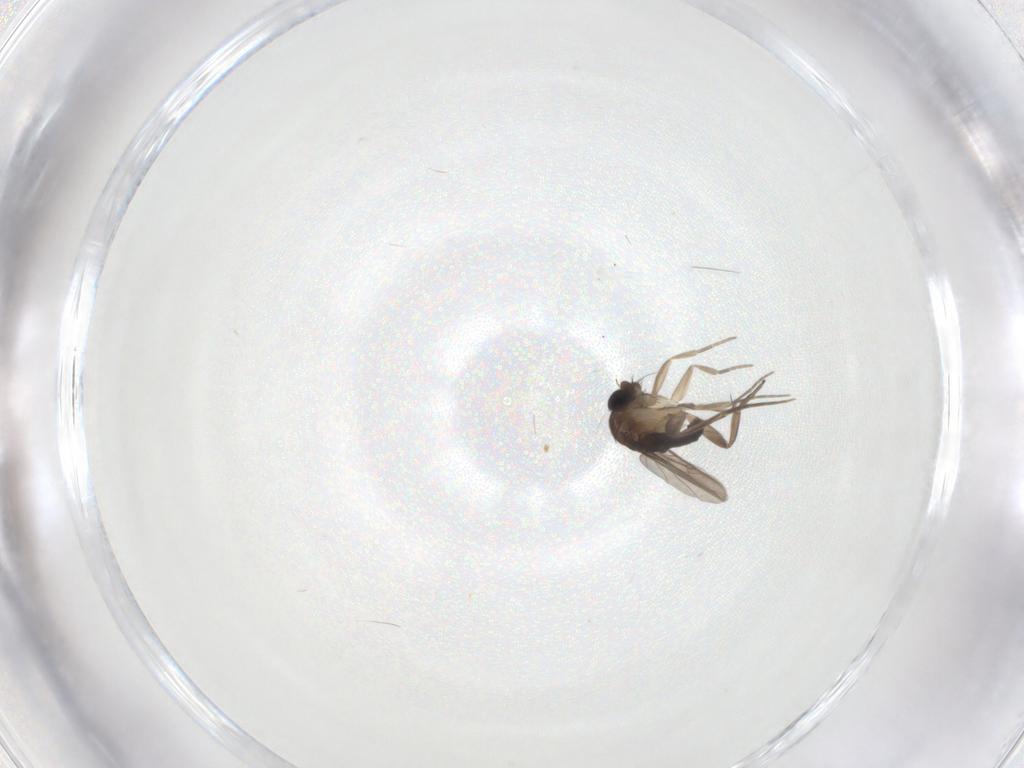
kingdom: Animalia
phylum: Arthropoda
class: Insecta
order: Diptera
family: Phoridae
